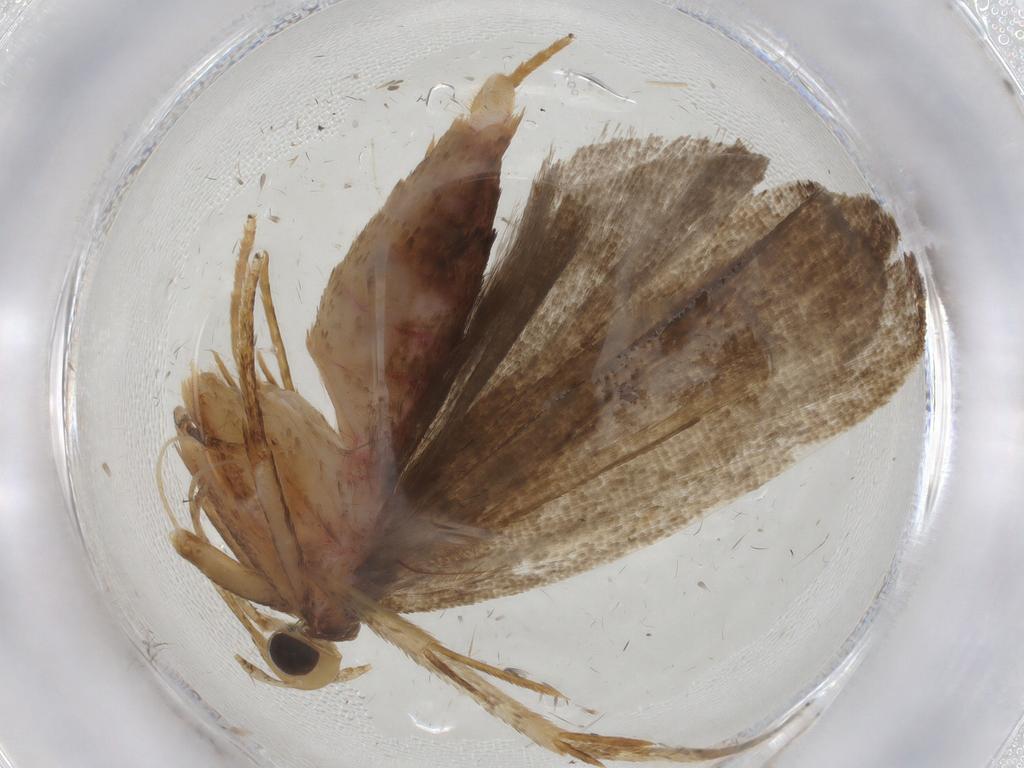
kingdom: Animalia
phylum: Arthropoda
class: Insecta
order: Lepidoptera
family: Autostichidae
